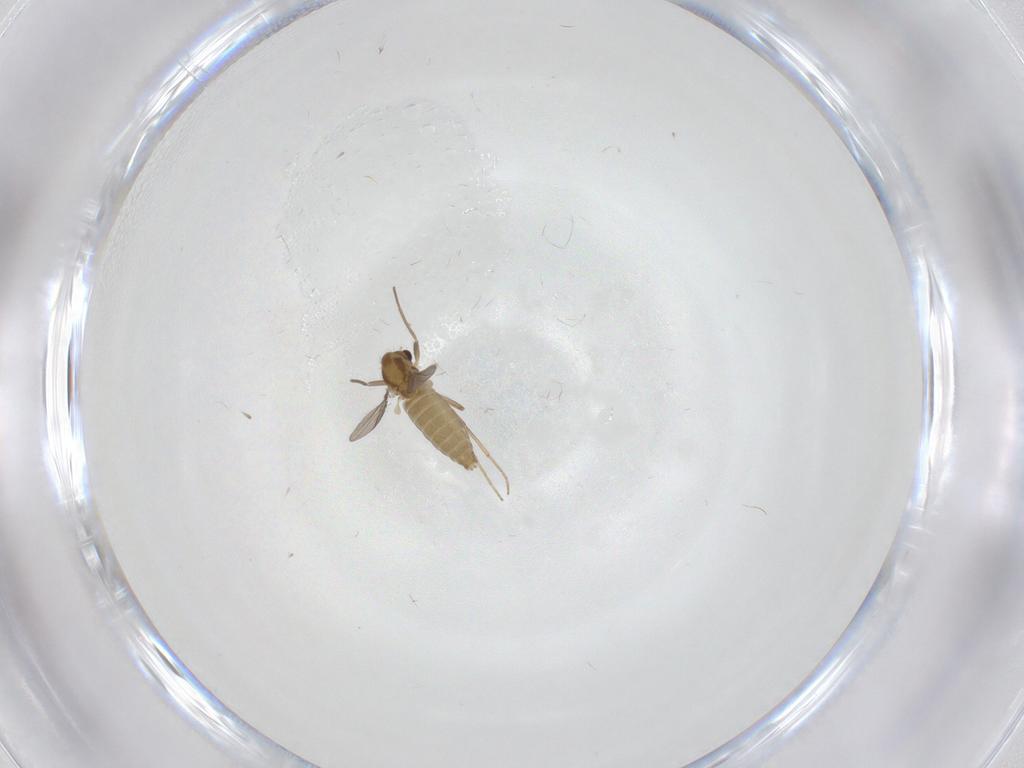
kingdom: Animalia
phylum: Arthropoda
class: Insecta
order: Diptera
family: Chironomidae
